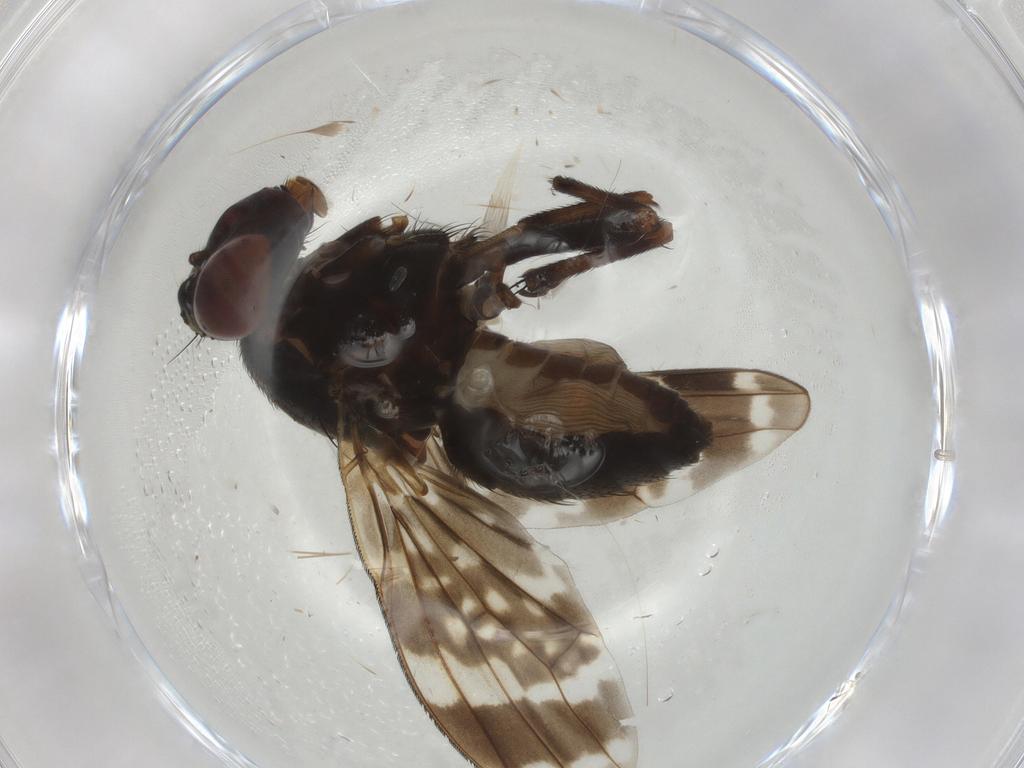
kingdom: Animalia
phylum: Arthropoda
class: Insecta
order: Diptera
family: Lauxaniidae
